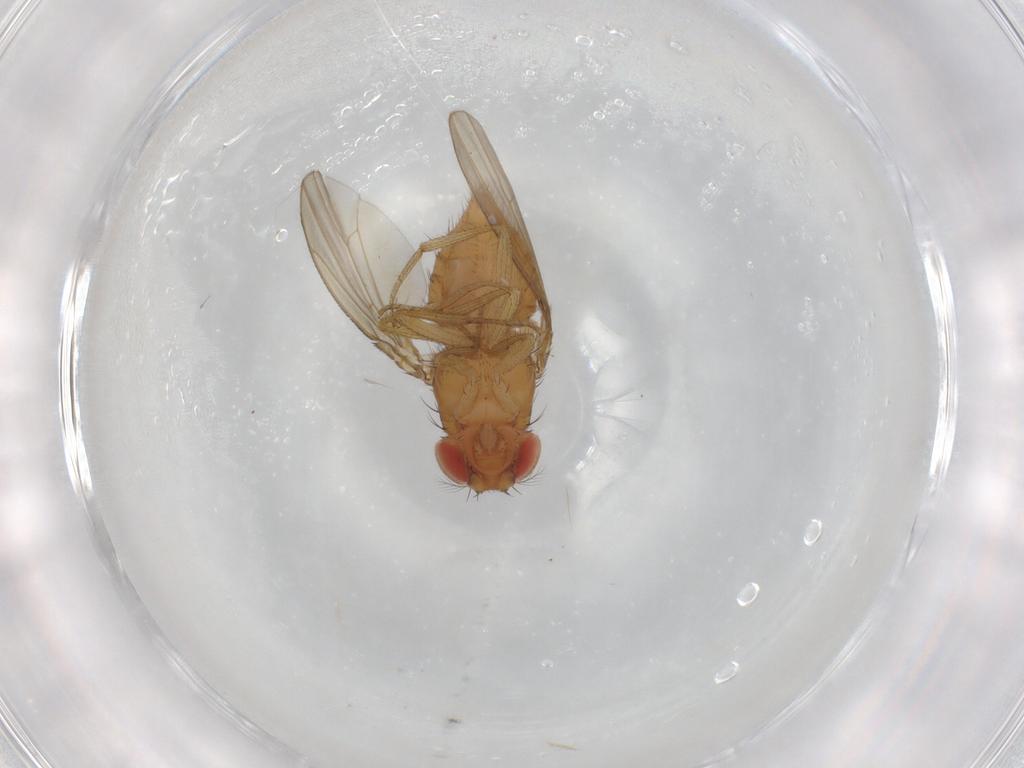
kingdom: Animalia
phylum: Arthropoda
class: Insecta
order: Diptera
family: Drosophilidae
